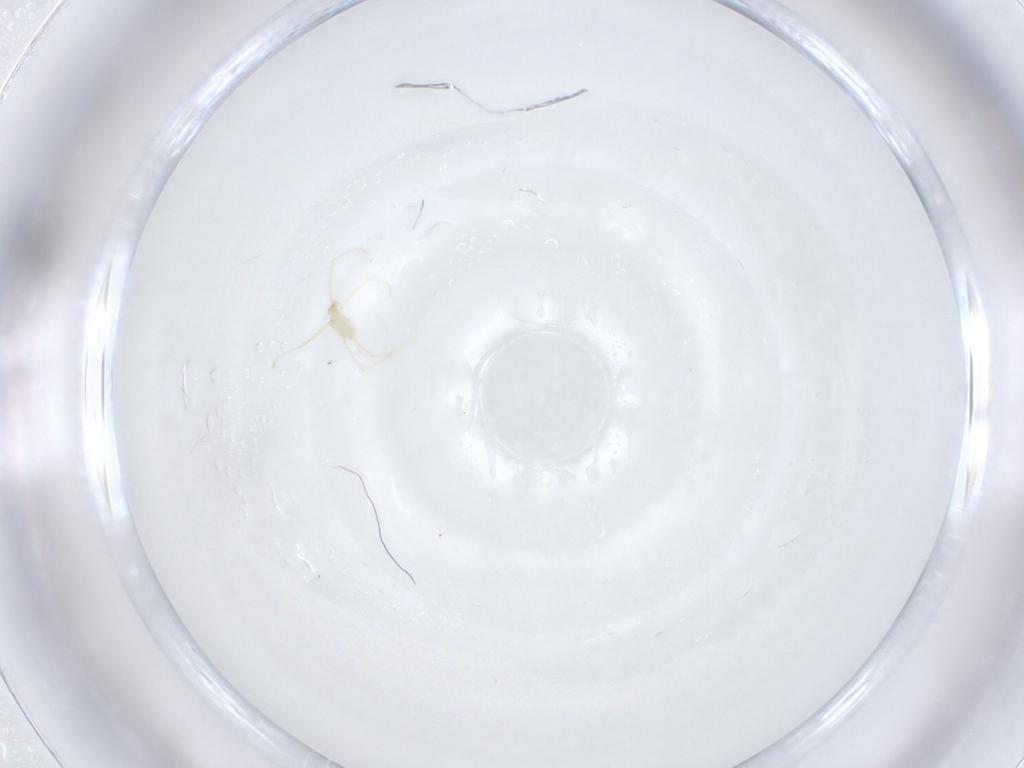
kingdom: Animalia
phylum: Arthropoda
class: Arachnida
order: Trombidiformes
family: Erythraeidae
